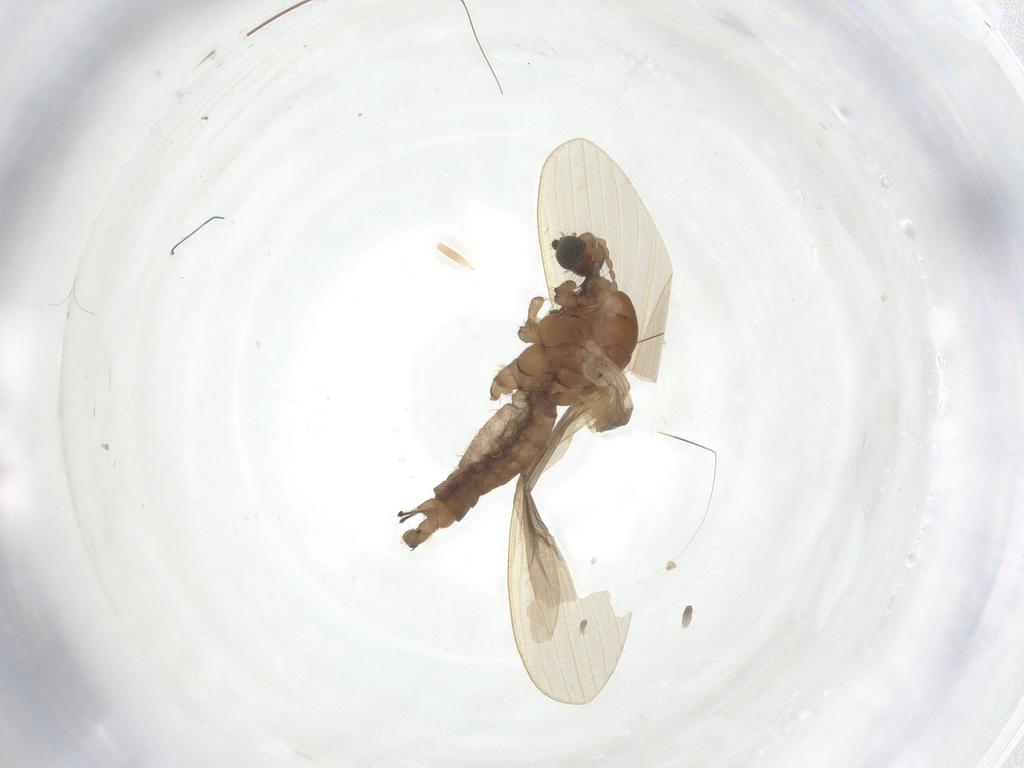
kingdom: Animalia
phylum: Arthropoda
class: Insecta
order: Diptera
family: Limoniidae
